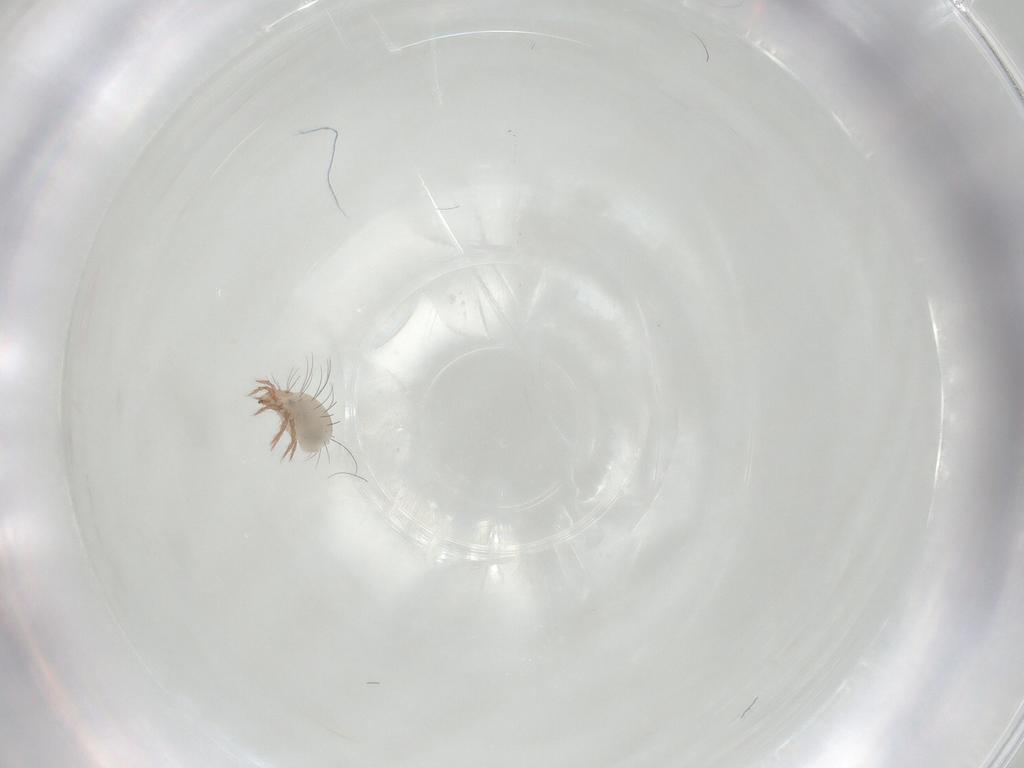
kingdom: Animalia
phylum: Arthropoda
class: Arachnida
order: Sarcoptiformes
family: Ceratozetidae
